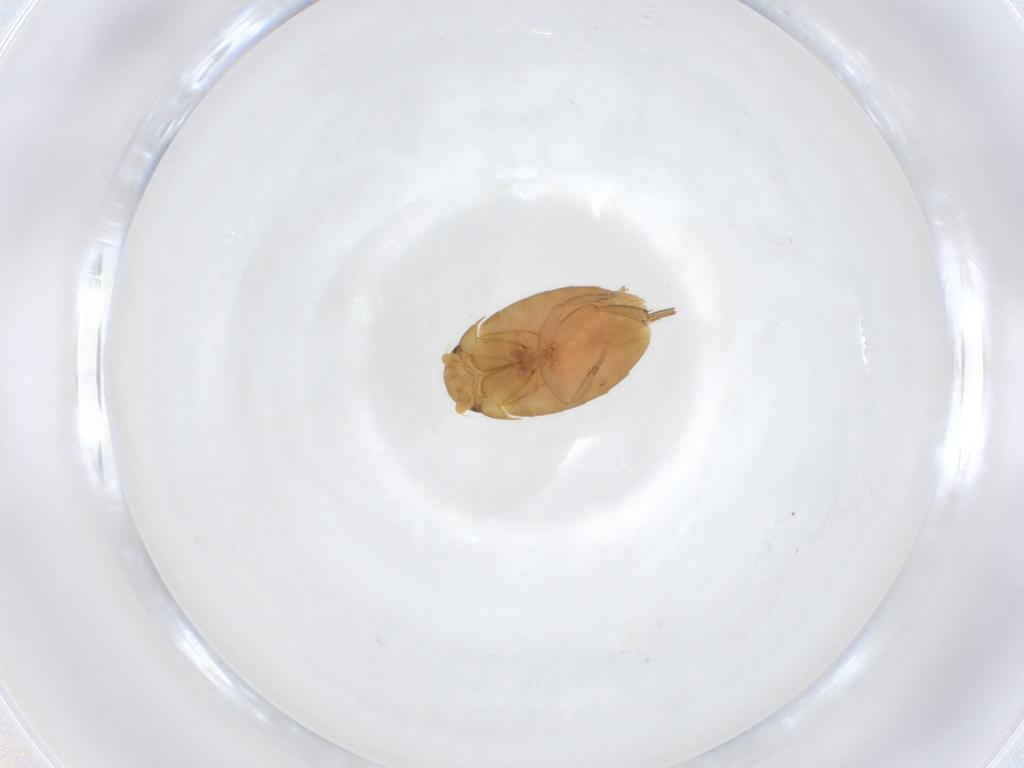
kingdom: Animalia
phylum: Arthropoda
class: Insecta
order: Diptera
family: Phoridae
